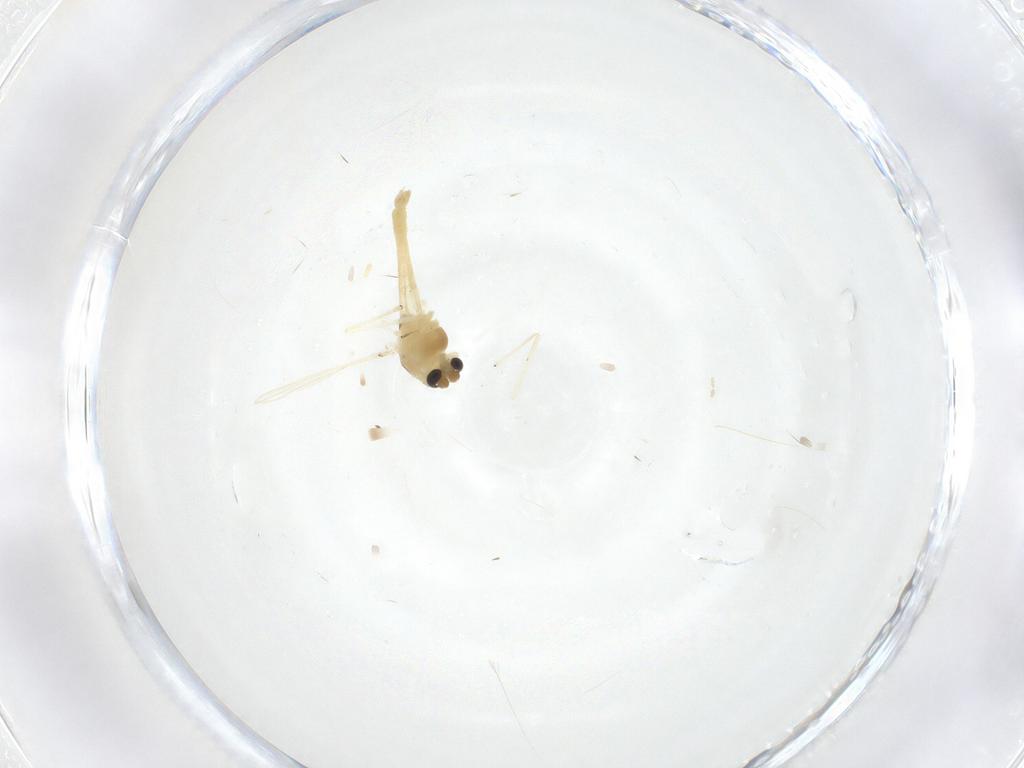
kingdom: Animalia
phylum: Arthropoda
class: Insecta
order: Diptera
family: Chironomidae
